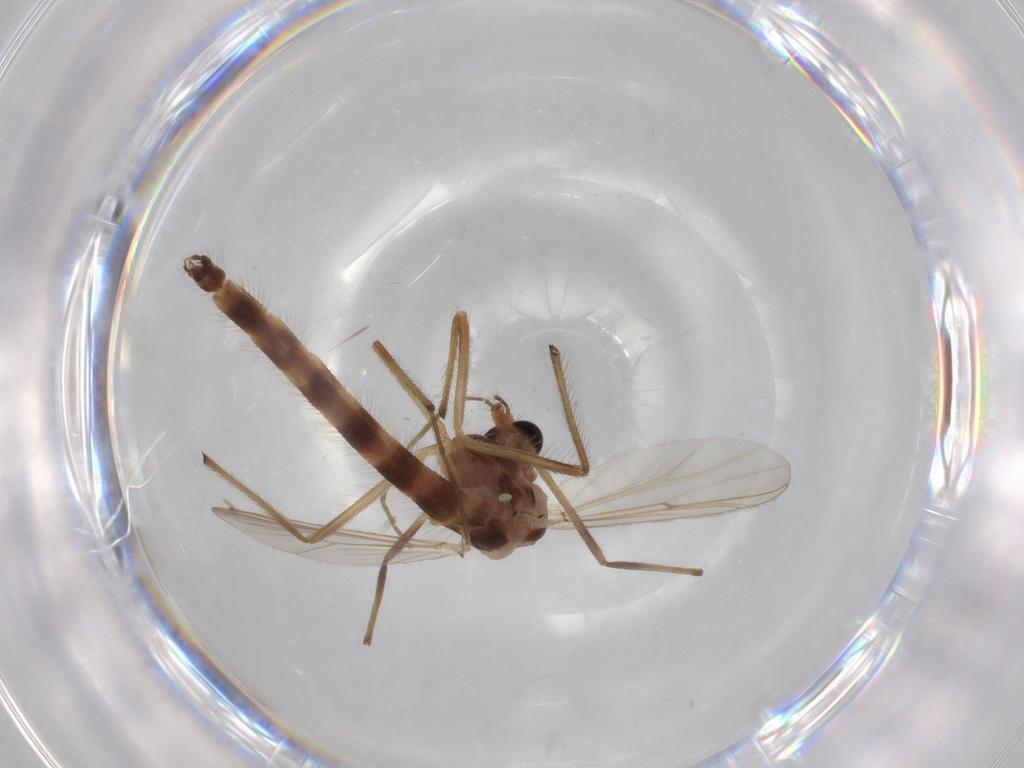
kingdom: Animalia
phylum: Arthropoda
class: Insecta
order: Diptera
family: Chironomidae
